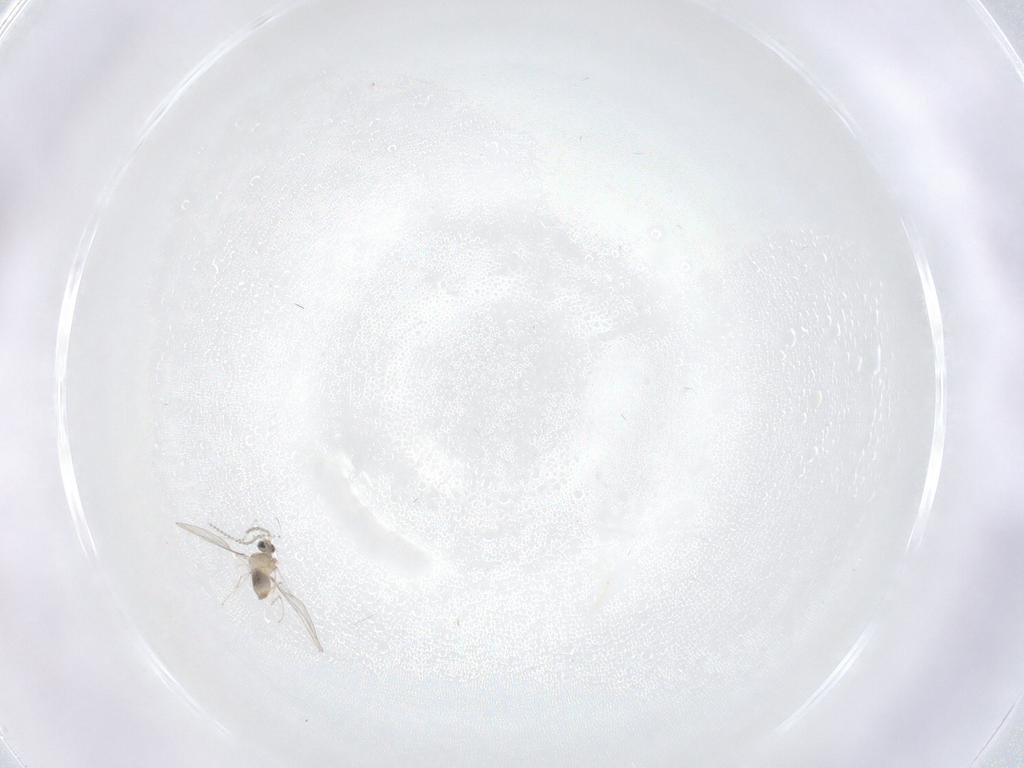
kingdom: Animalia
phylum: Arthropoda
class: Insecta
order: Diptera
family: Cecidomyiidae
